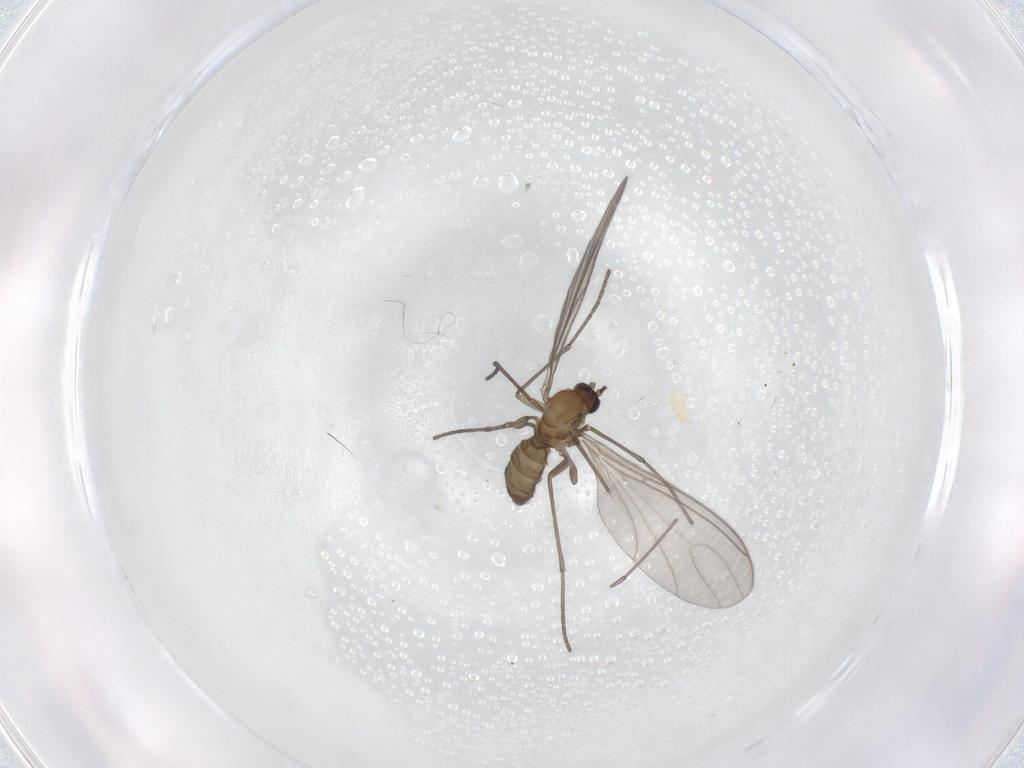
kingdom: Animalia
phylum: Arthropoda
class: Insecta
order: Diptera
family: Sciaridae
